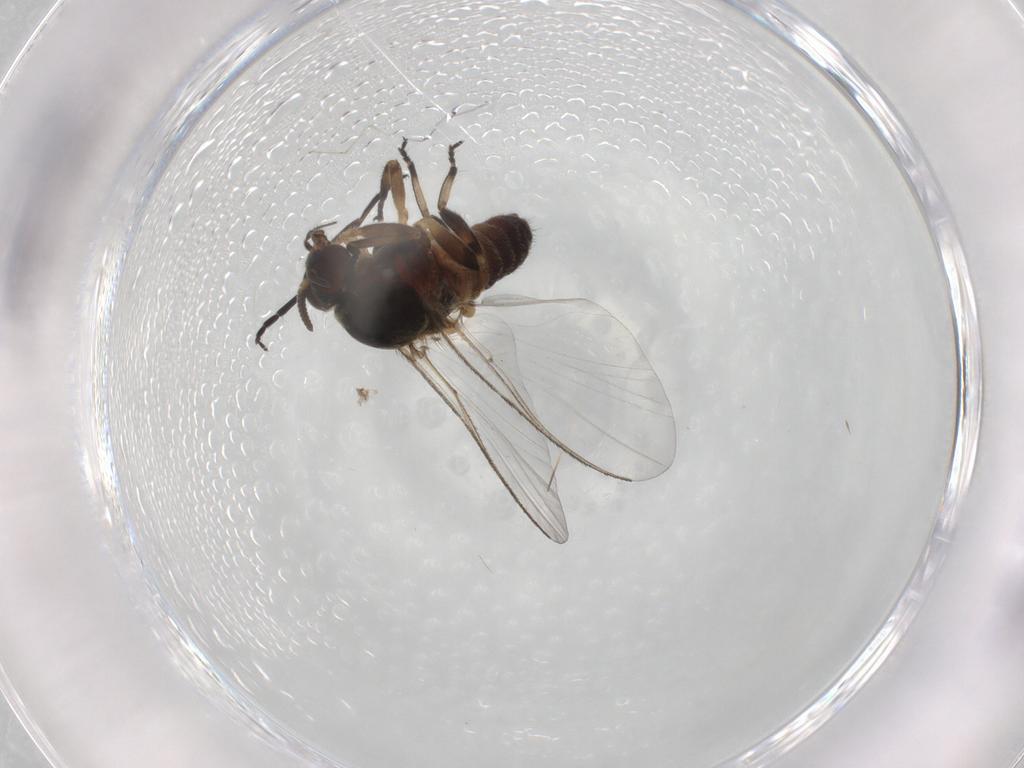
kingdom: Animalia
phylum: Arthropoda
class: Insecta
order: Diptera
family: Simuliidae
